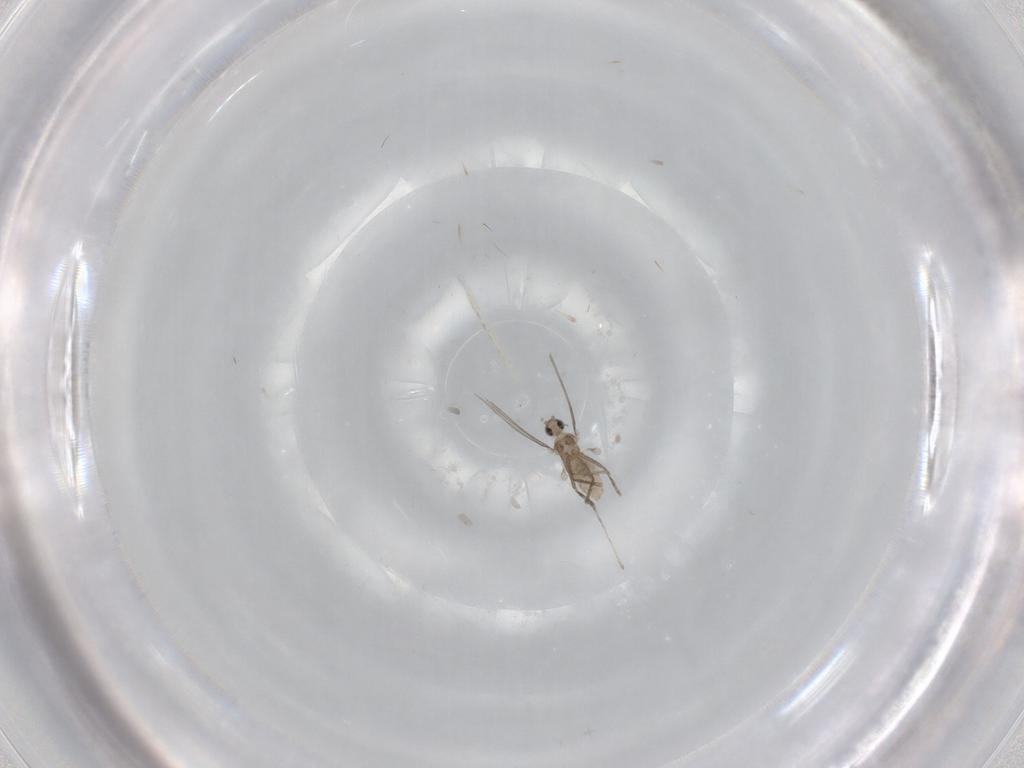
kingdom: Animalia
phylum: Arthropoda
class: Insecta
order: Diptera
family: Cecidomyiidae
